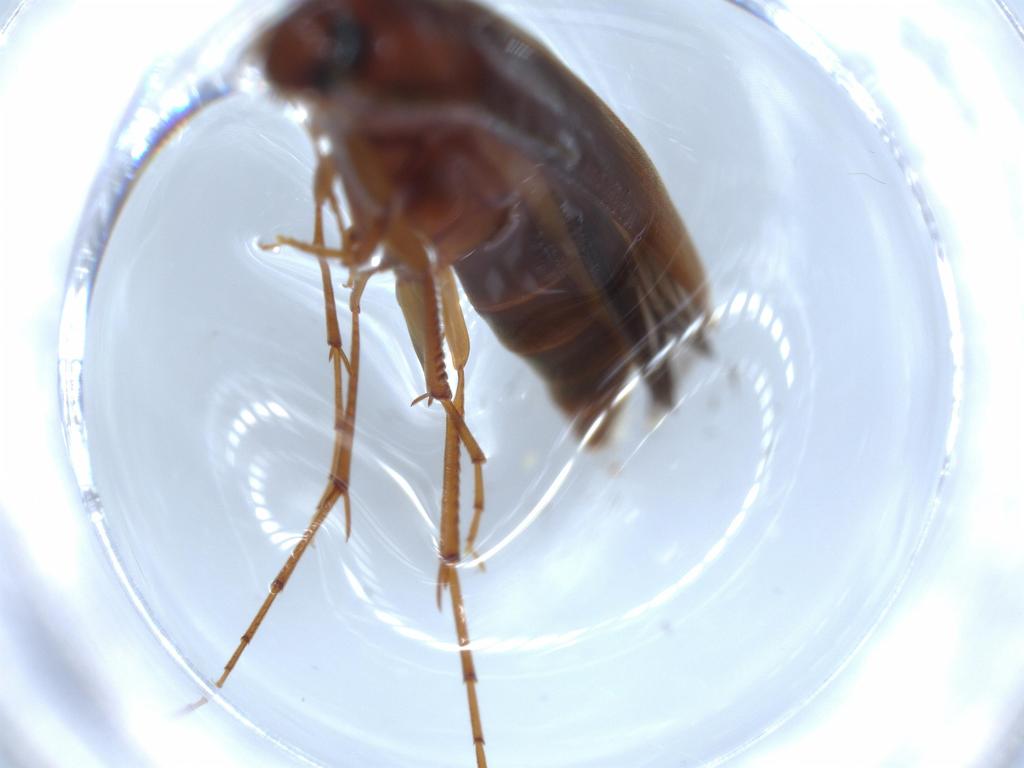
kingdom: Animalia
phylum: Arthropoda
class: Insecta
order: Coleoptera
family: Melandryidae
